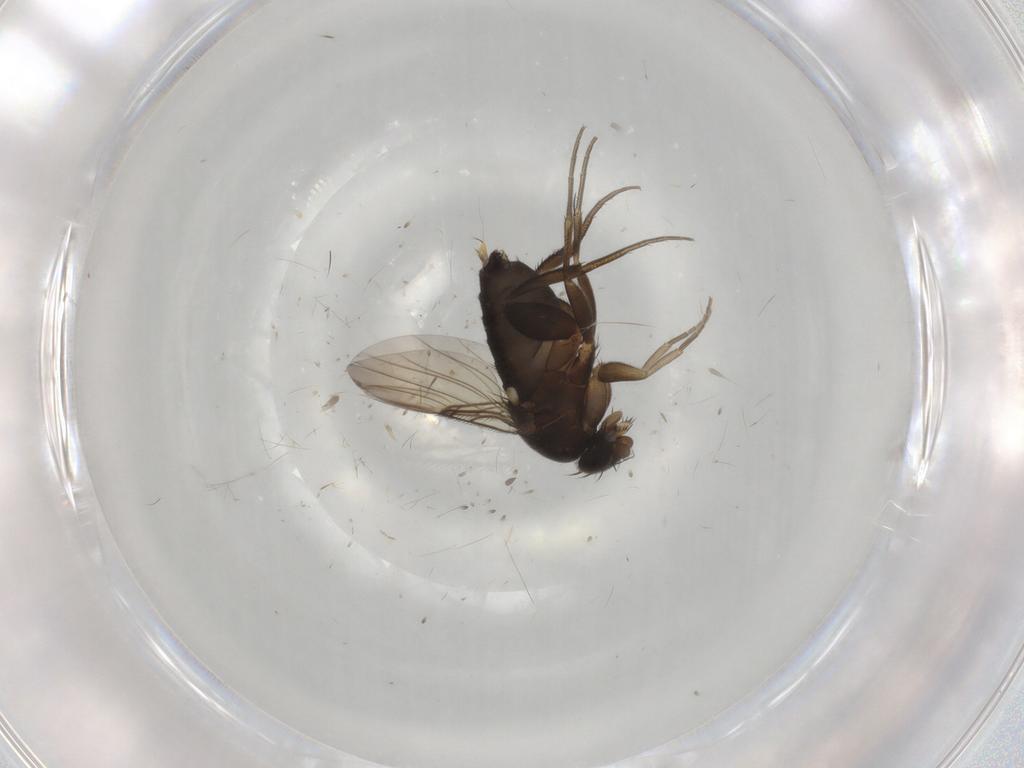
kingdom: Animalia
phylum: Arthropoda
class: Insecta
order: Diptera
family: Phoridae
